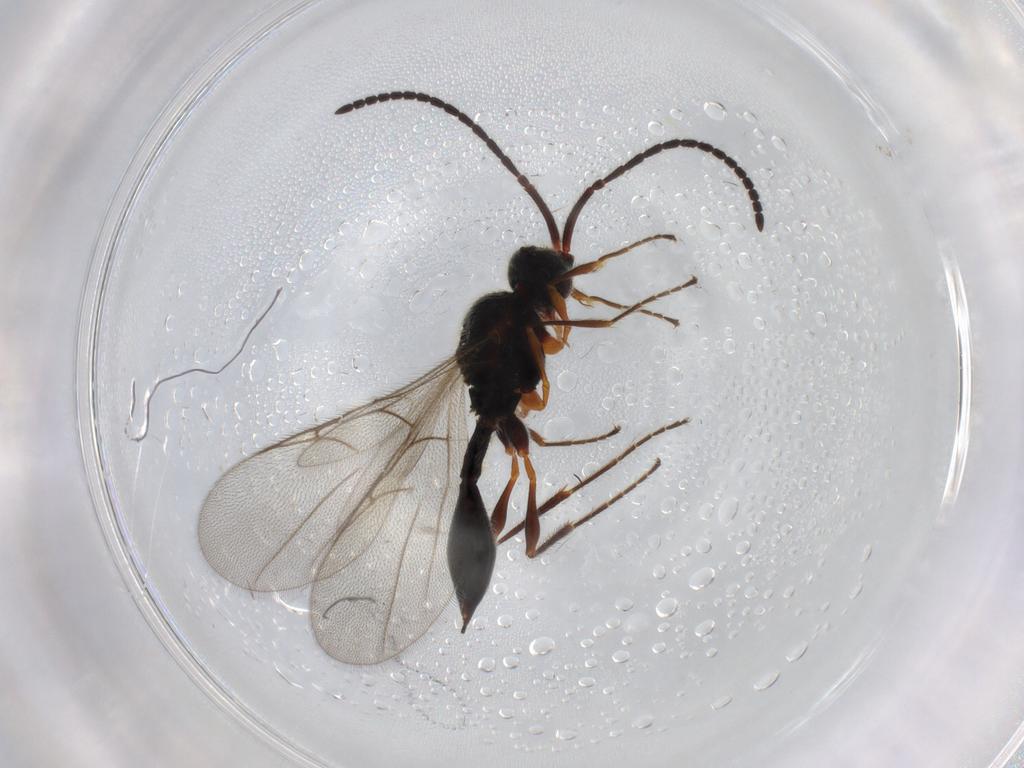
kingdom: Animalia
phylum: Arthropoda
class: Insecta
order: Hymenoptera
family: Diapriidae
